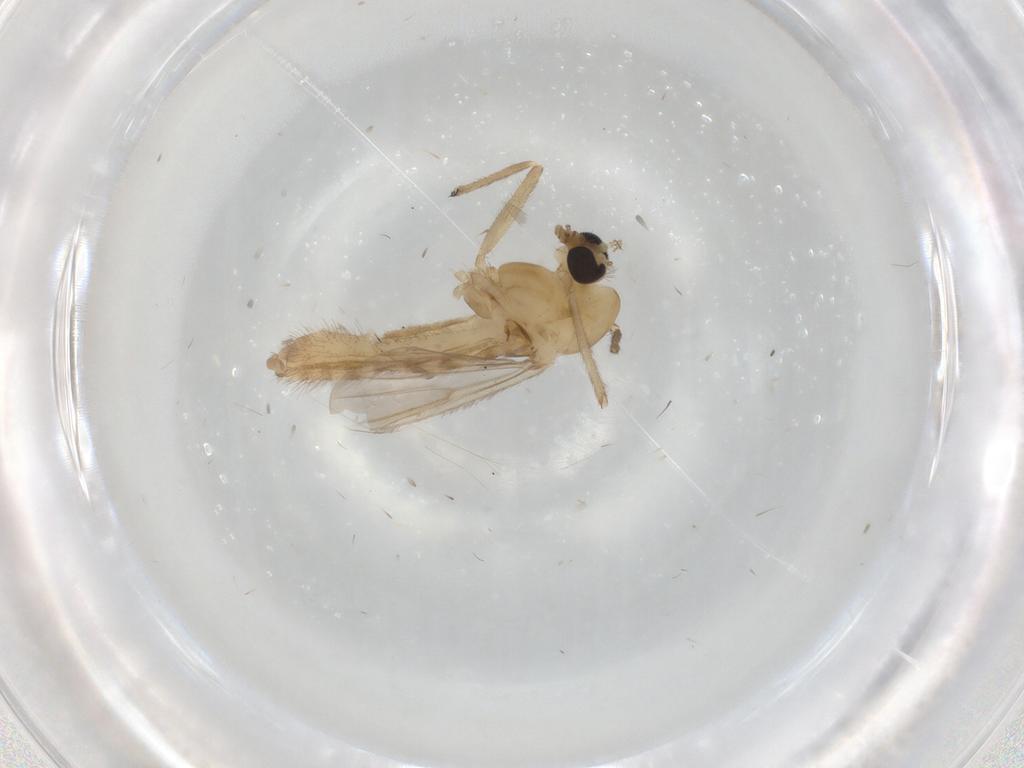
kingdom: Animalia
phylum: Arthropoda
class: Insecta
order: Diptera
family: Chironomidae
